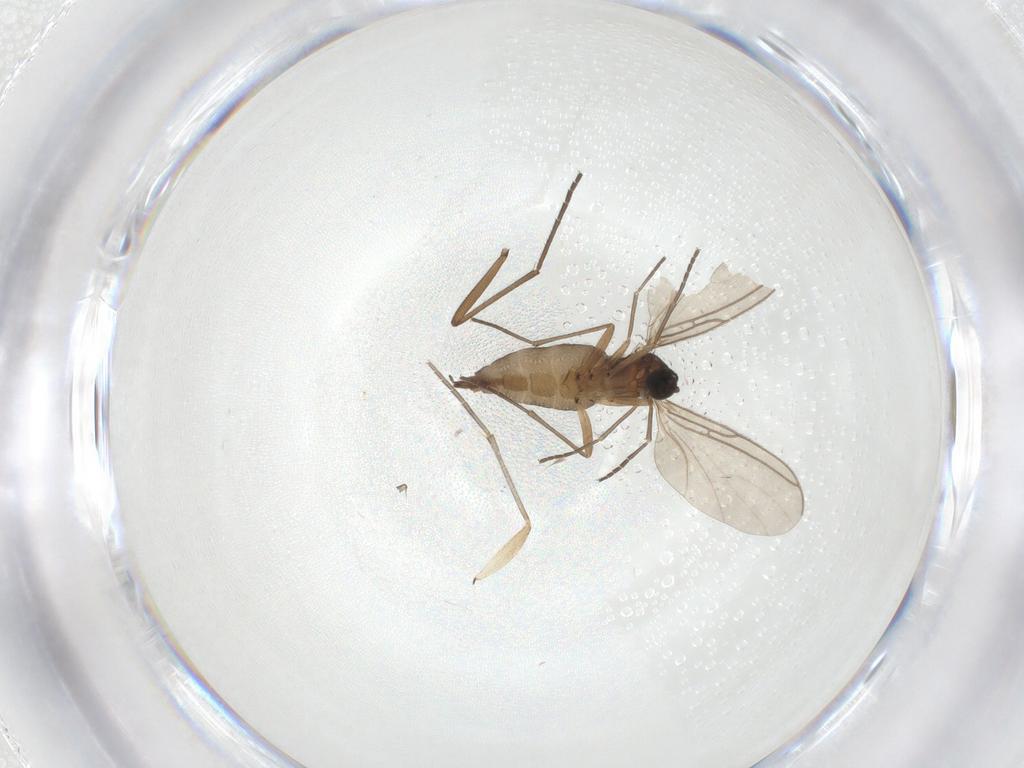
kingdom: Animalia
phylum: Arthropoda
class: Insecta
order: Diptera
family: Sciaridae
